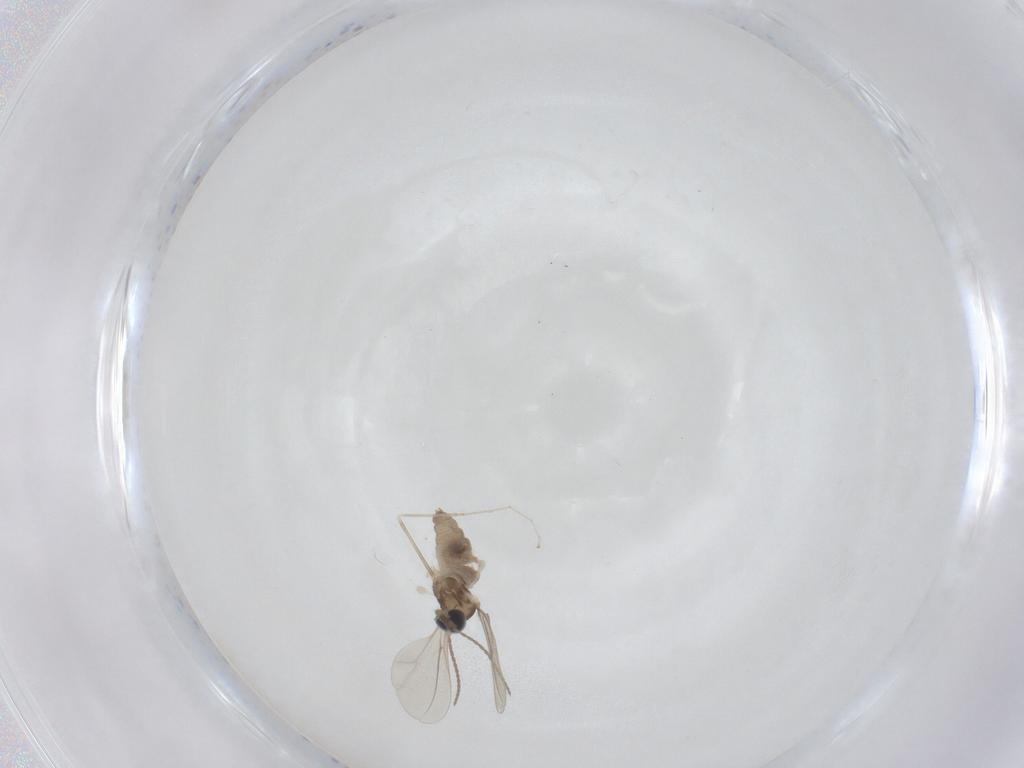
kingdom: Animalia
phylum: Arthropoda
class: Insecta
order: Diptera
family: Cecidomyiidae
